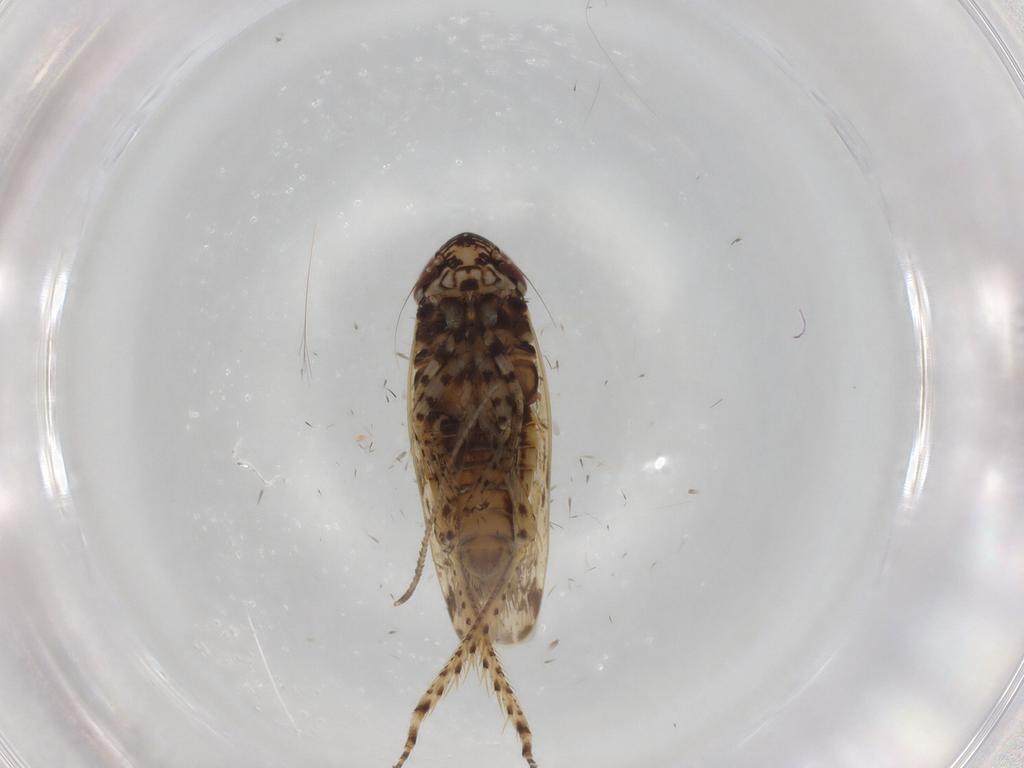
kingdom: Animalia
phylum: Arthropoda
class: Insecta
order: Hemiptera
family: Cicadellidae
